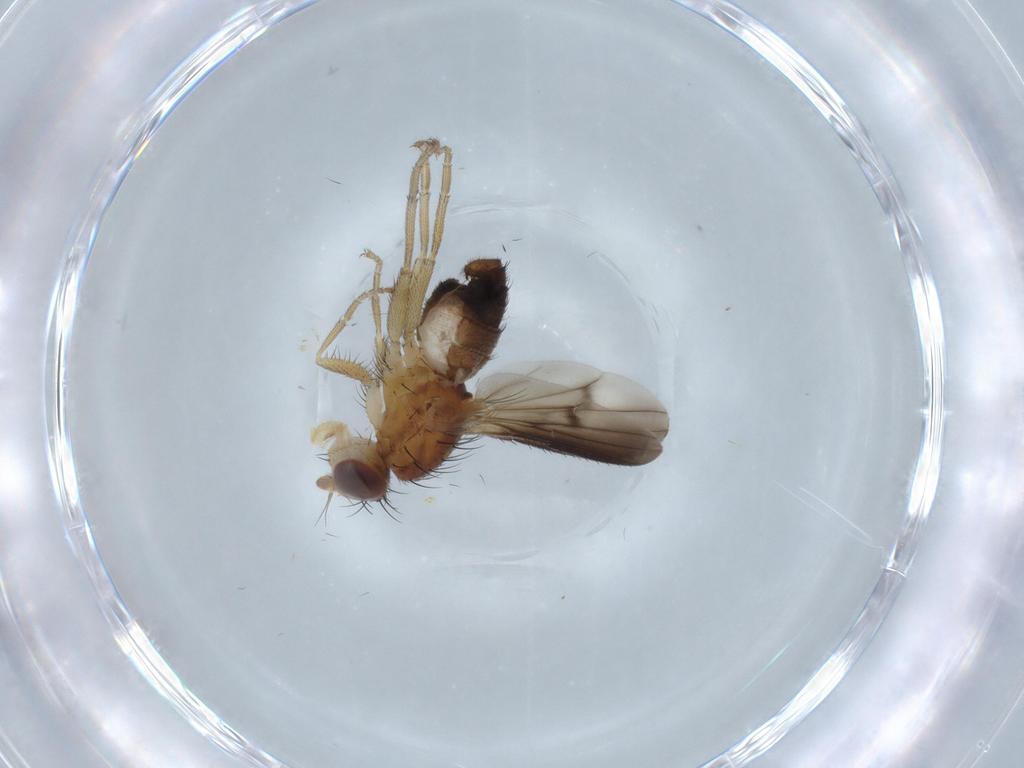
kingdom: Animalia
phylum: Arthropoda
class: Insecta
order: Diptera
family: Heleomyzidae
